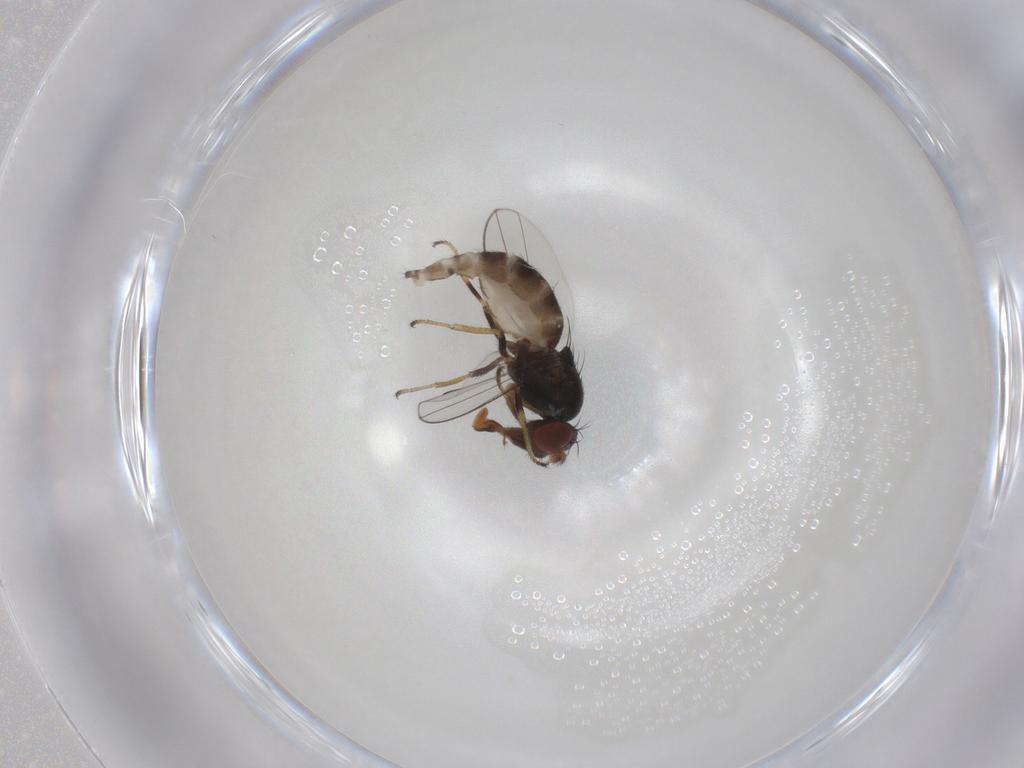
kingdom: Animalia
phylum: Arthropoda
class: Insecta
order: Diptera
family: Ephydridae
